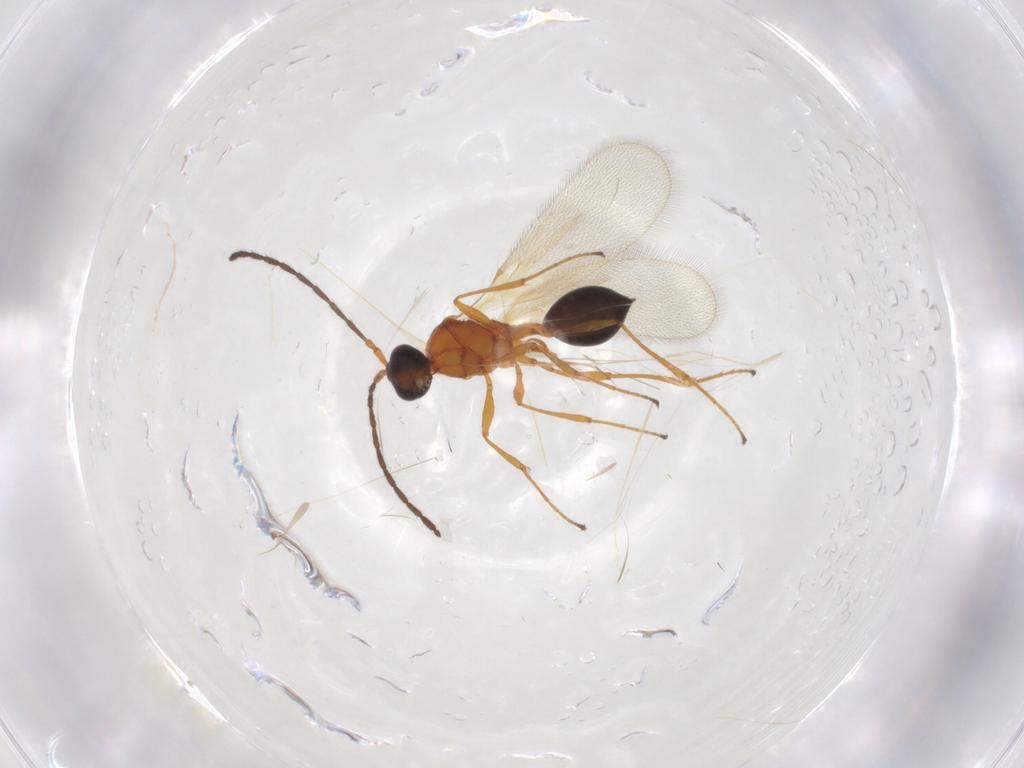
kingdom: Animalia
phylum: Arthropoda
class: Insecta
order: Hymenoptera
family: Diapriidae
